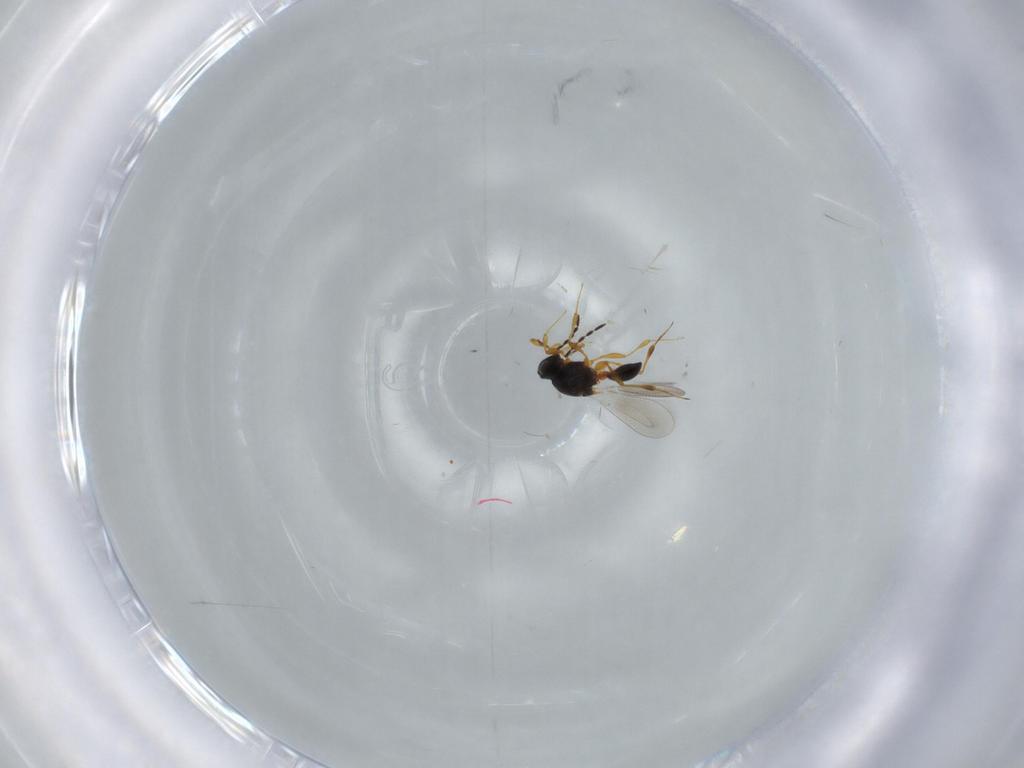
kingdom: Animalia
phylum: Arthropoda
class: Insecta
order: Hymenoptera
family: Platygastridae
